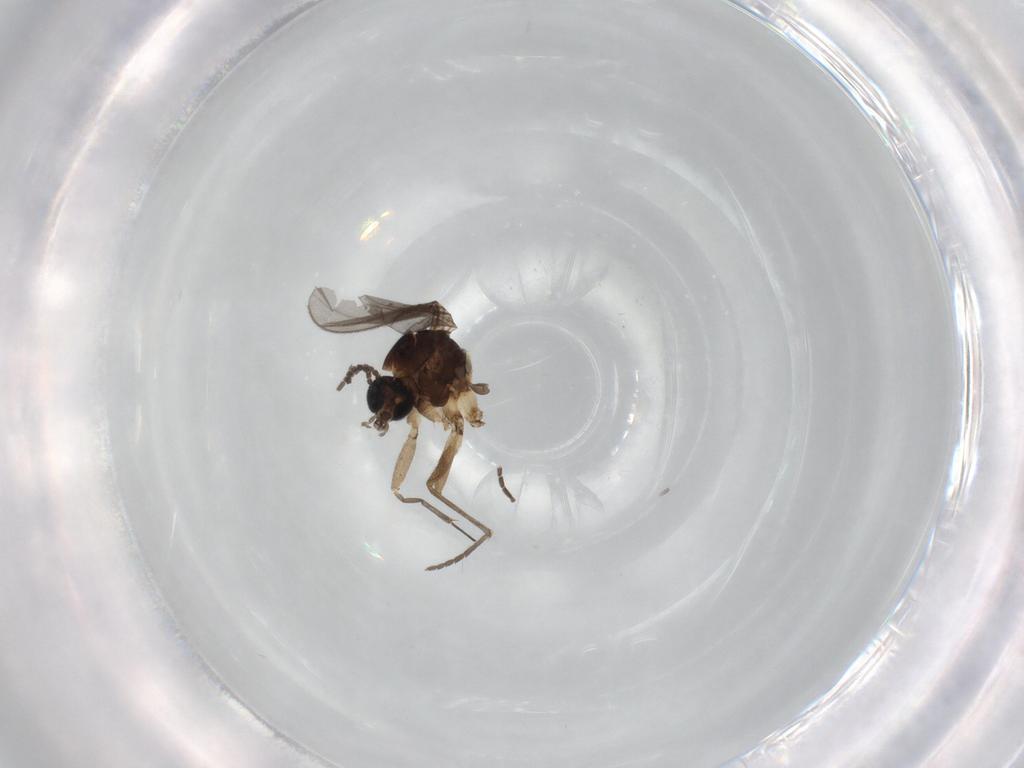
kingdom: Animalia
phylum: Arthropoda
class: Insecta
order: Diptera
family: Sciaridae
